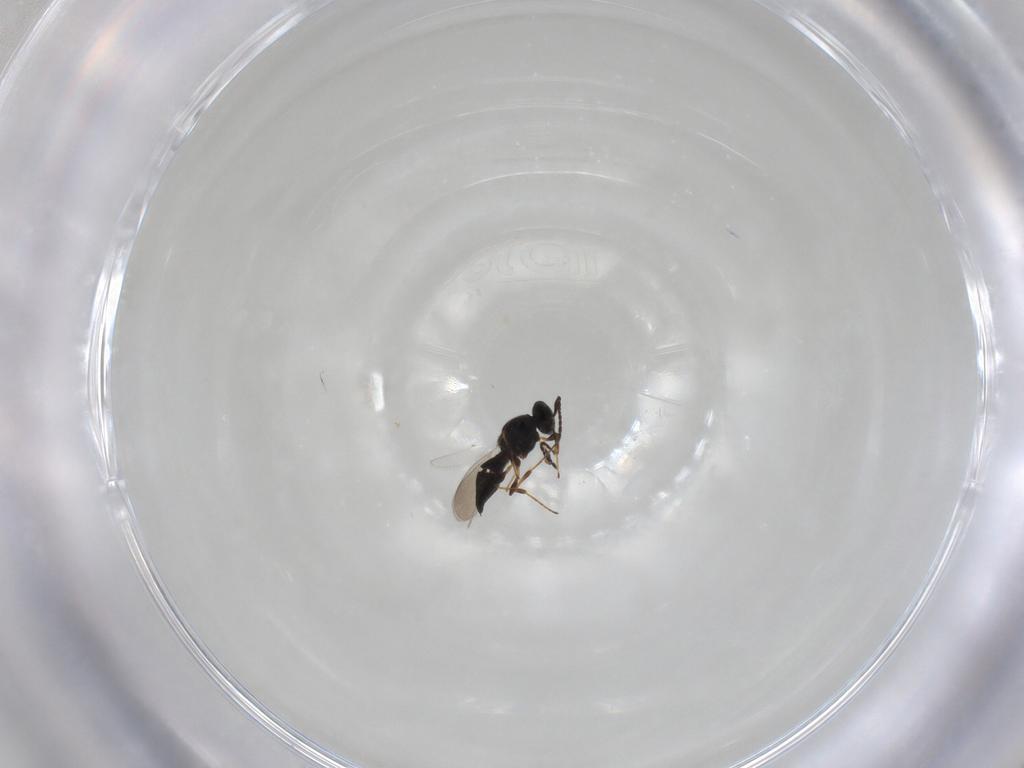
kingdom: Animalia
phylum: Arthropoda
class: Insecta
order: Hymenoptera
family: Platygastridae
